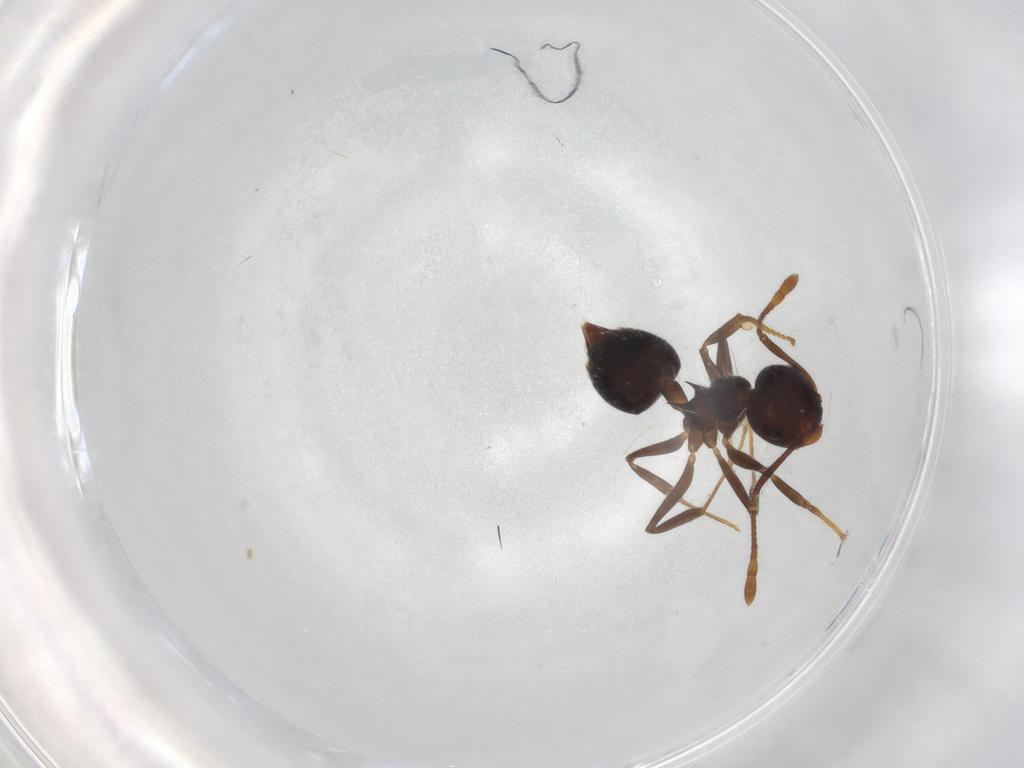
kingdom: Animalia
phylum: Arthropoda
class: Insecta
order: Hymenoptera
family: Formicidae
